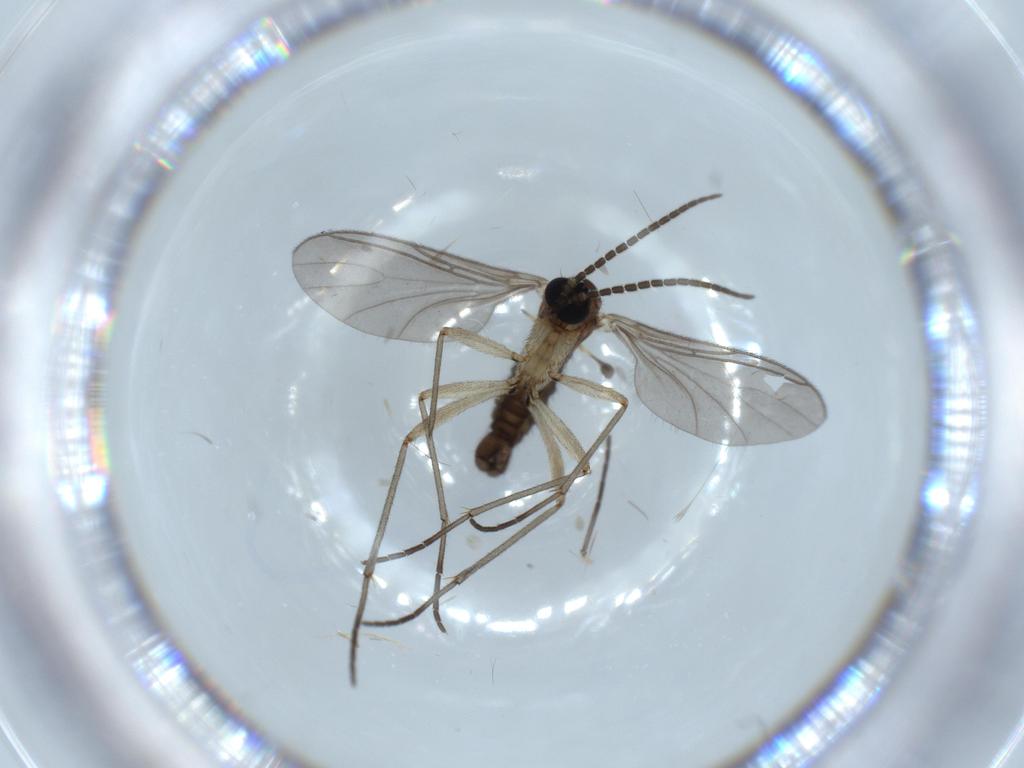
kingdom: Animalia
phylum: Arthropoda
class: Insecta
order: Diptera
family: Sciaridae
